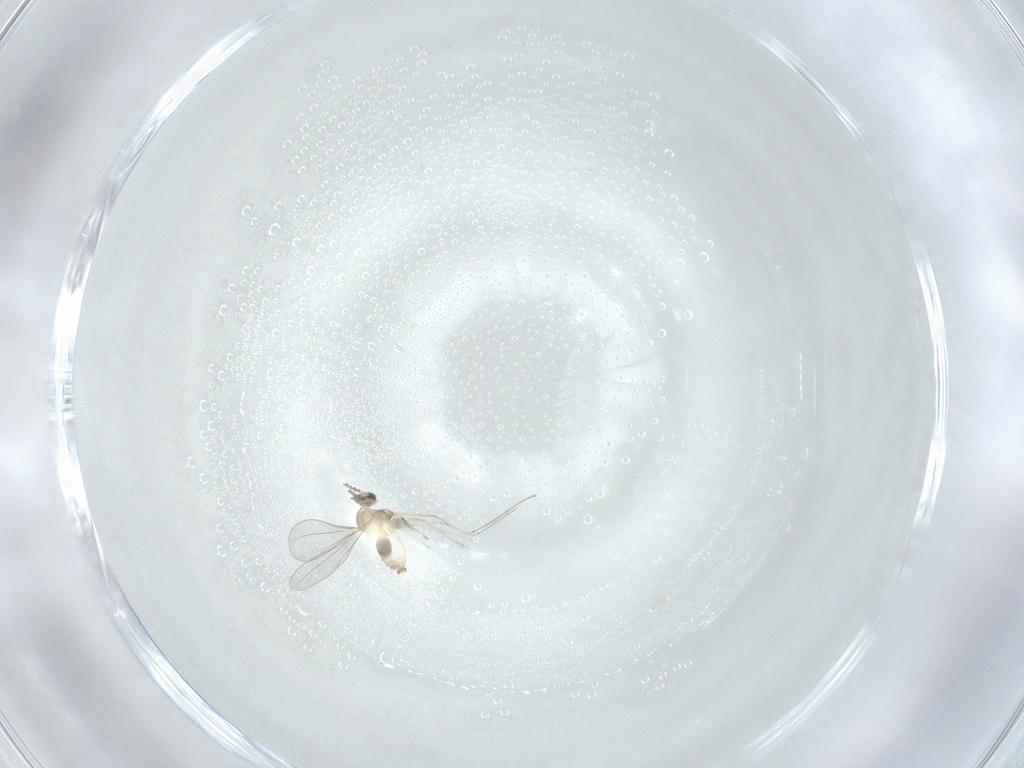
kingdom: Animalia
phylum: Arthropoda
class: Insecta
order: Diptera
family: Cecidomyiidae
